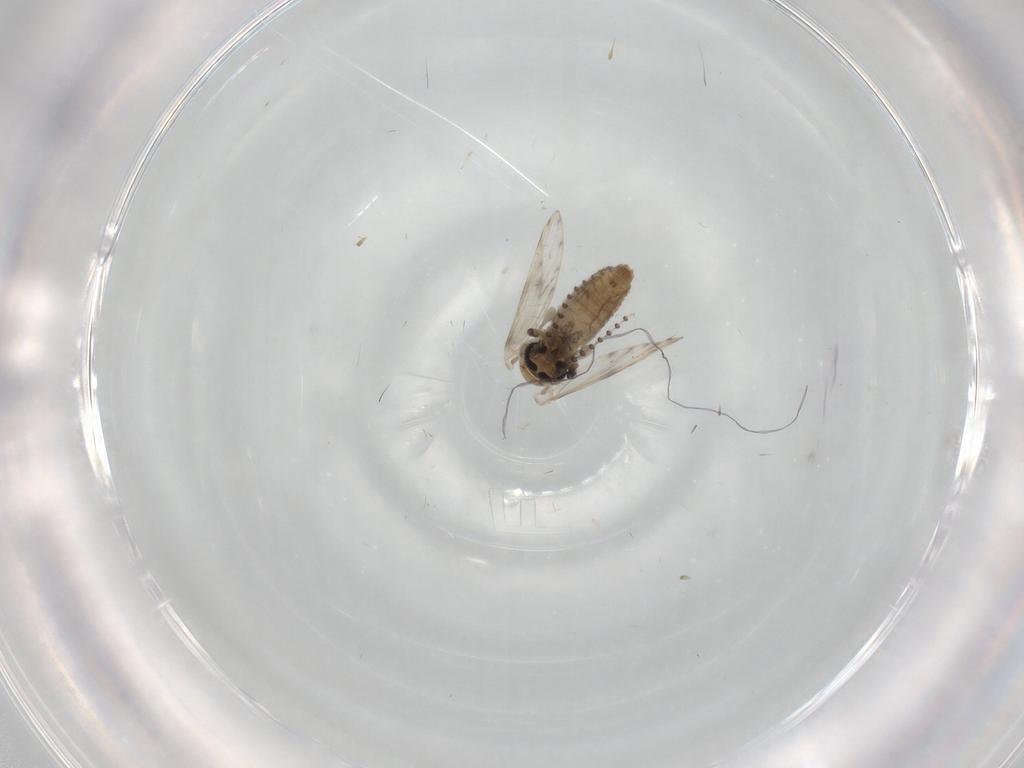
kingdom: Animalia
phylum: Arthropoda
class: Insecta
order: Diptera
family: Psychodidae
